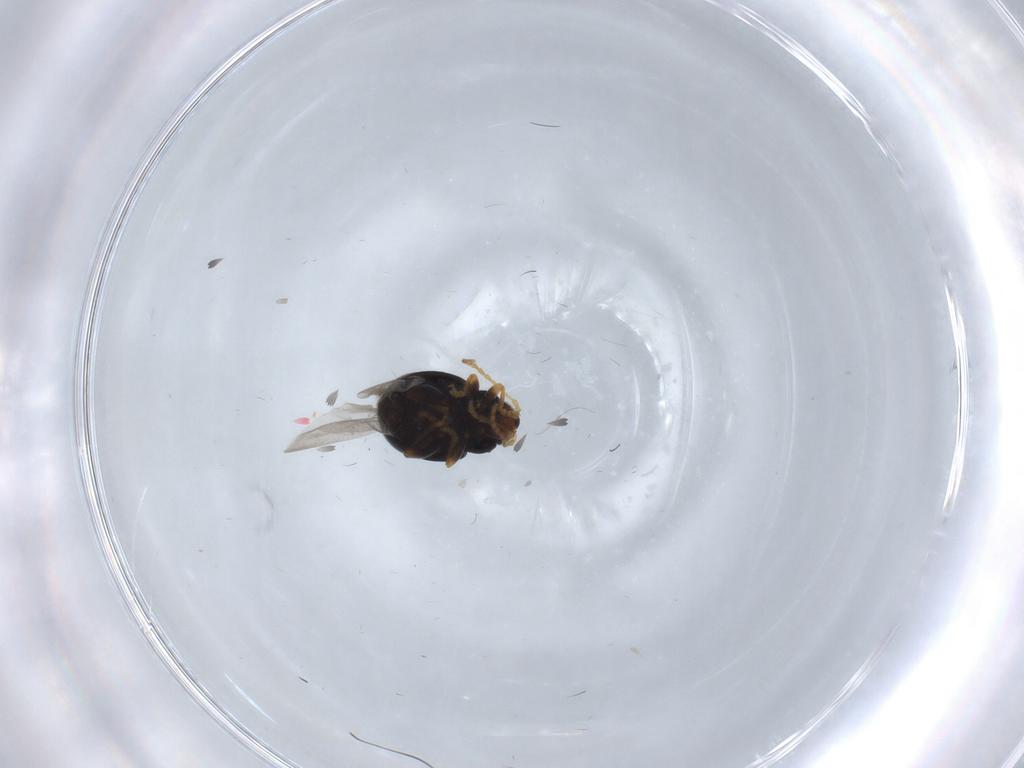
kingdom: Animalia
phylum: Arthropoda
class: Insecta
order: Coleoptera
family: Chrysomelidae
